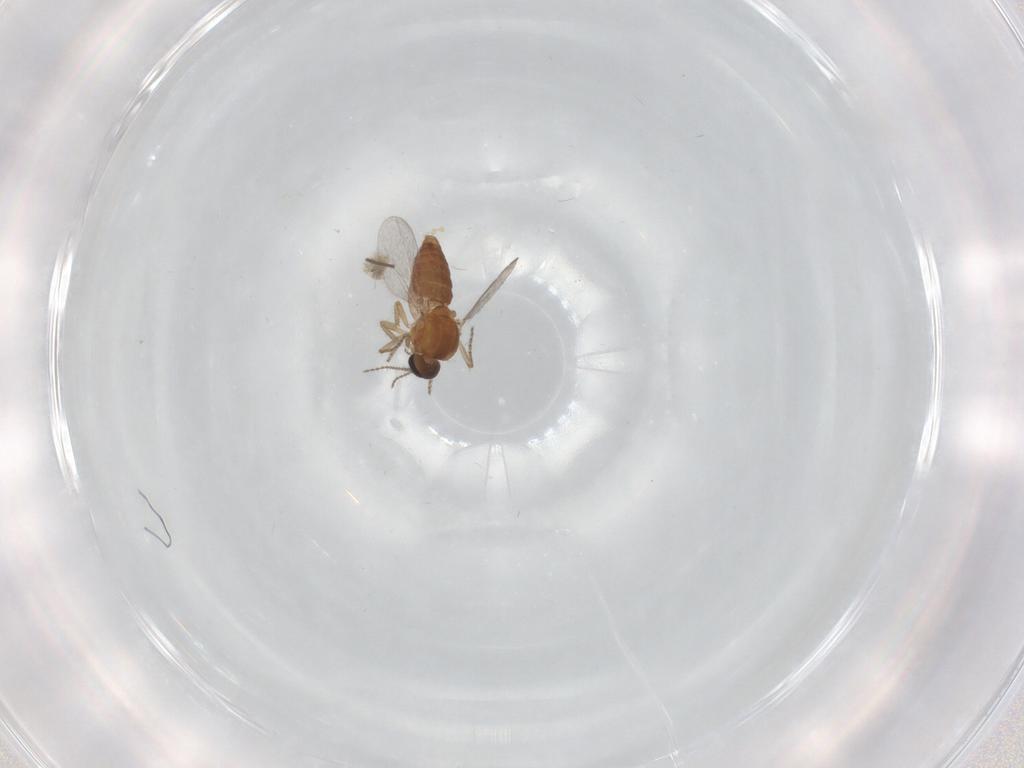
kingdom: Animalia
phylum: Arthropoda
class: Insecta
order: Diptera
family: Ceratopogonidae
